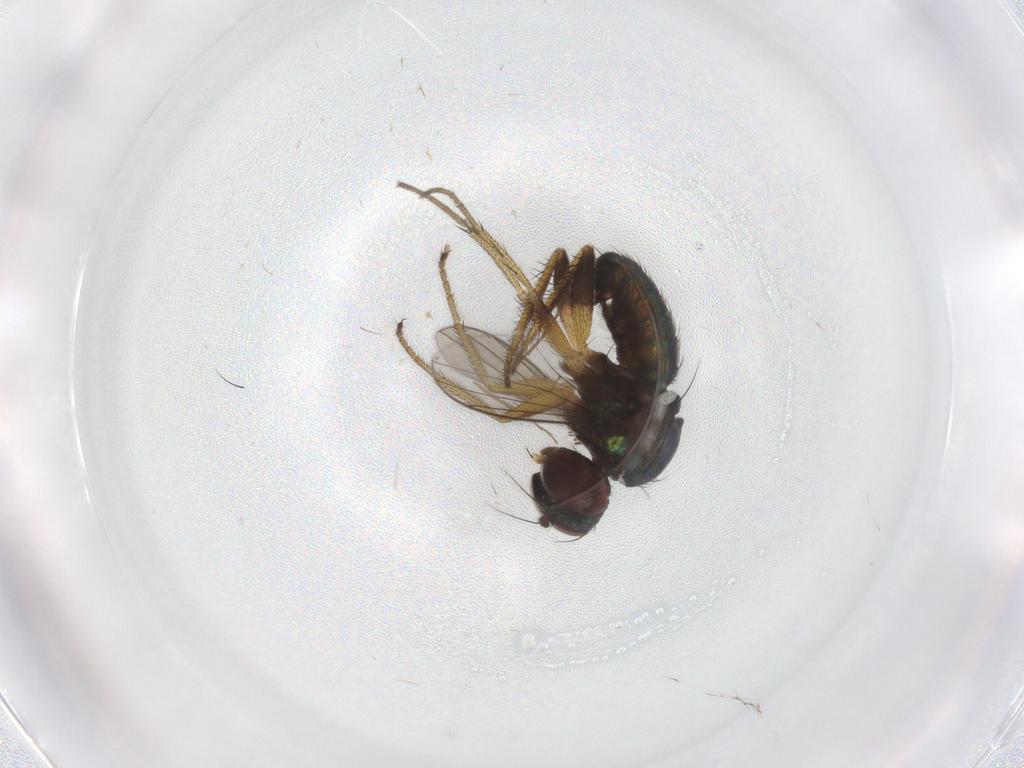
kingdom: Animalia
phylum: Arthropoda
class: Insecta
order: Diptera
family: Dolichopodidae
